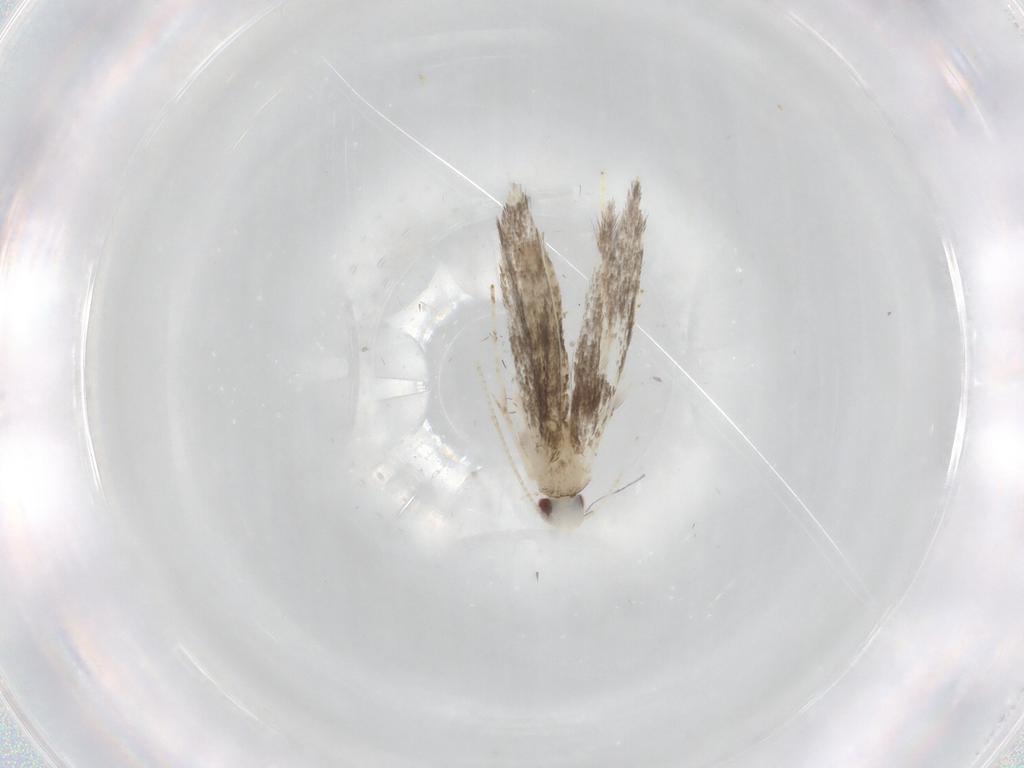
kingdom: Animalia
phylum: Arthropoda
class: Insecta
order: Lepidoptera
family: Gracillariidae
